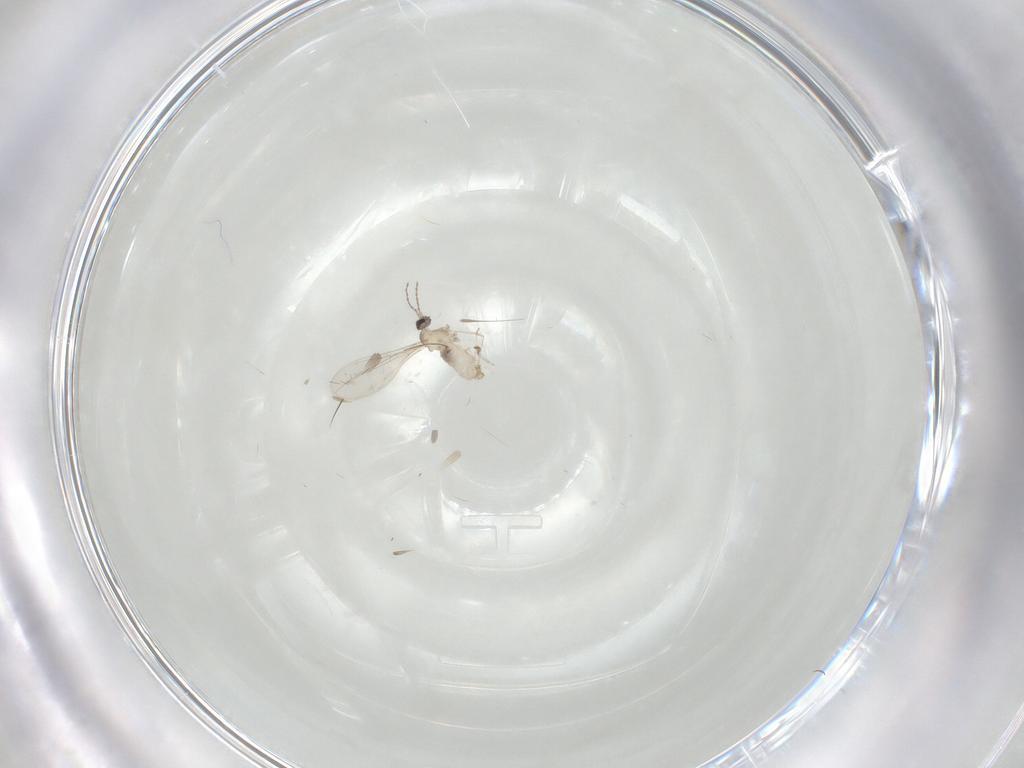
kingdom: Animalia
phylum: Arthropoda
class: Insecta
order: Diptera
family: Cecidomyiidae
